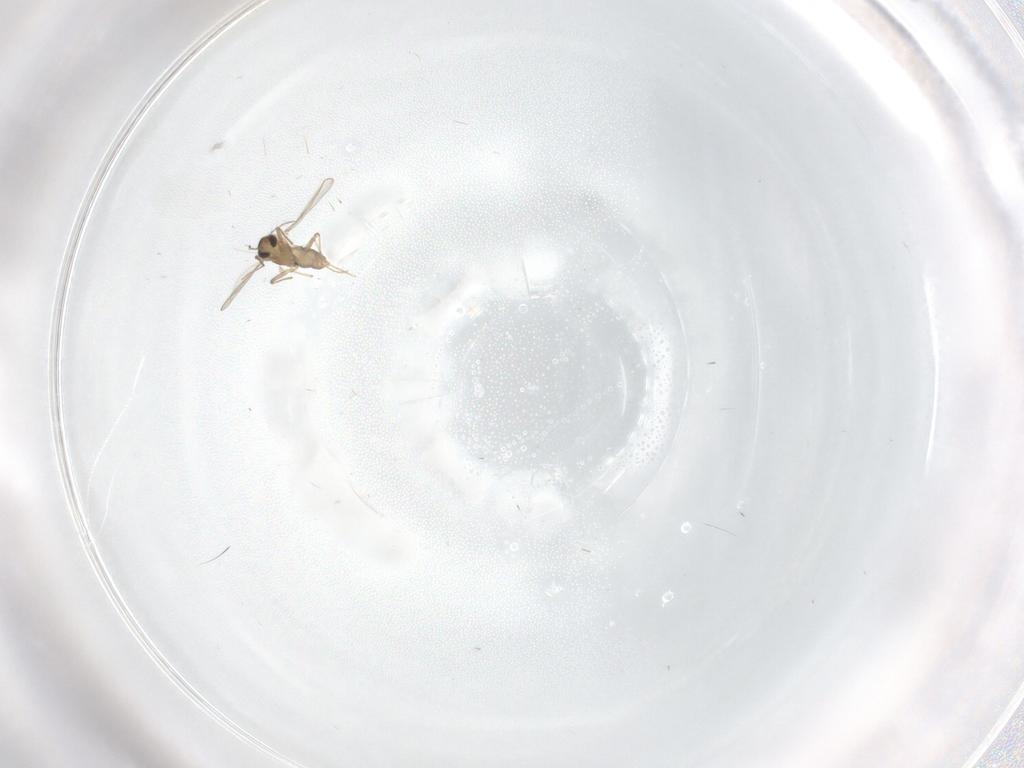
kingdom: Animalia
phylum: Arthropoda
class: Insecta
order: Diptera
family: Chironomidae
